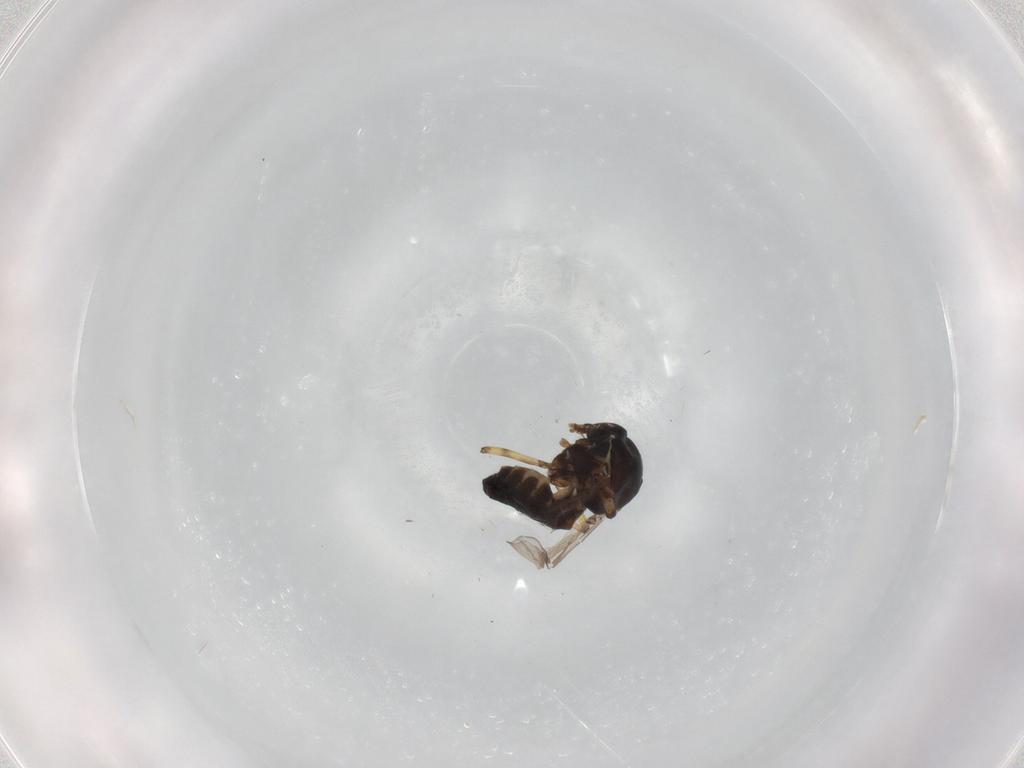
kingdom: Animalia
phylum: Arthropoda
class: Insecta
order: Diptera
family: Ceratopogonidae
